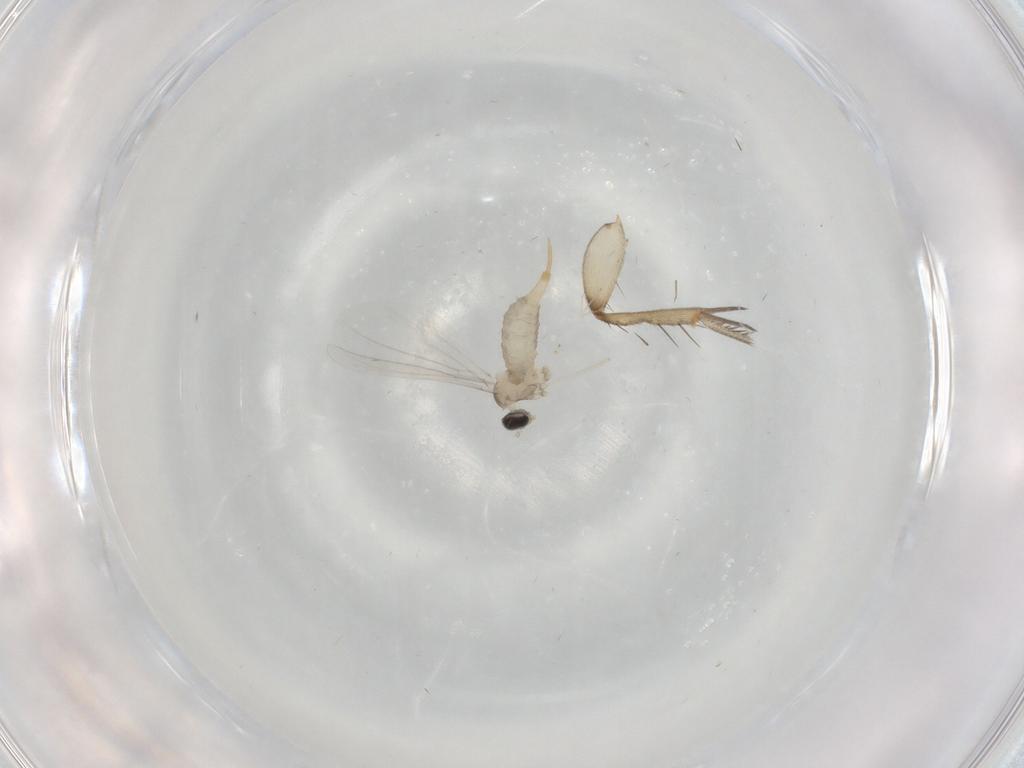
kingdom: Animalia
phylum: Arthropoda
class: Insecta
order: Diptera
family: Cecidomyiidae
